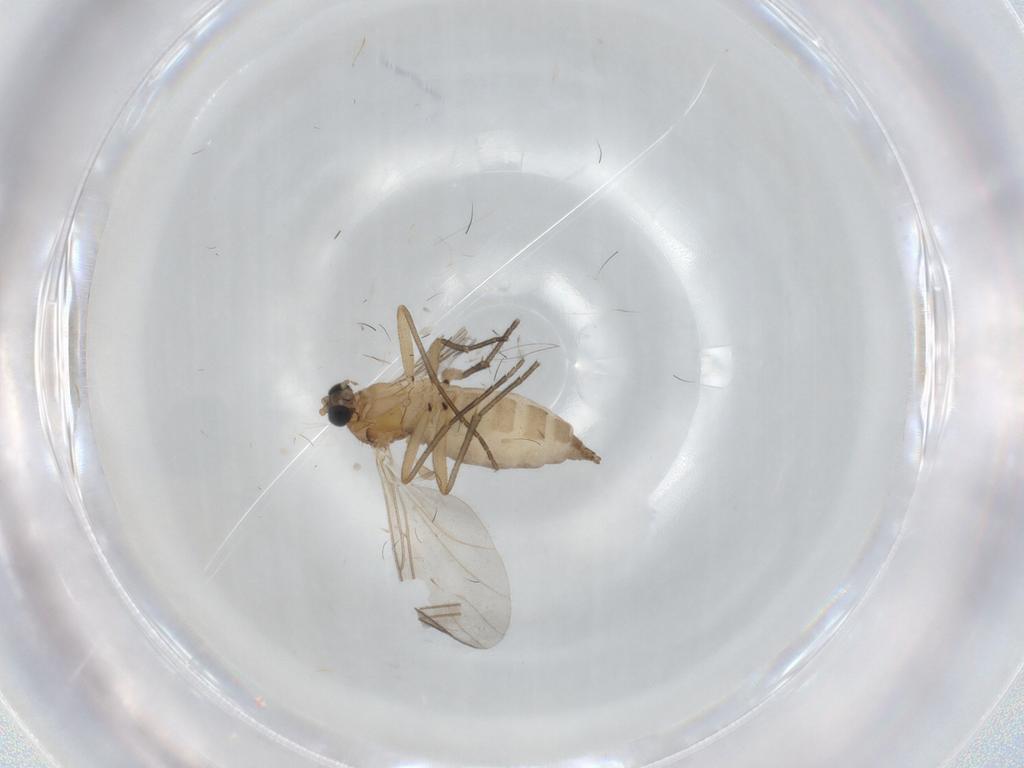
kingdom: Animalia
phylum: Arthropoda
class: Insecta
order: Diptera
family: Sciaridae
